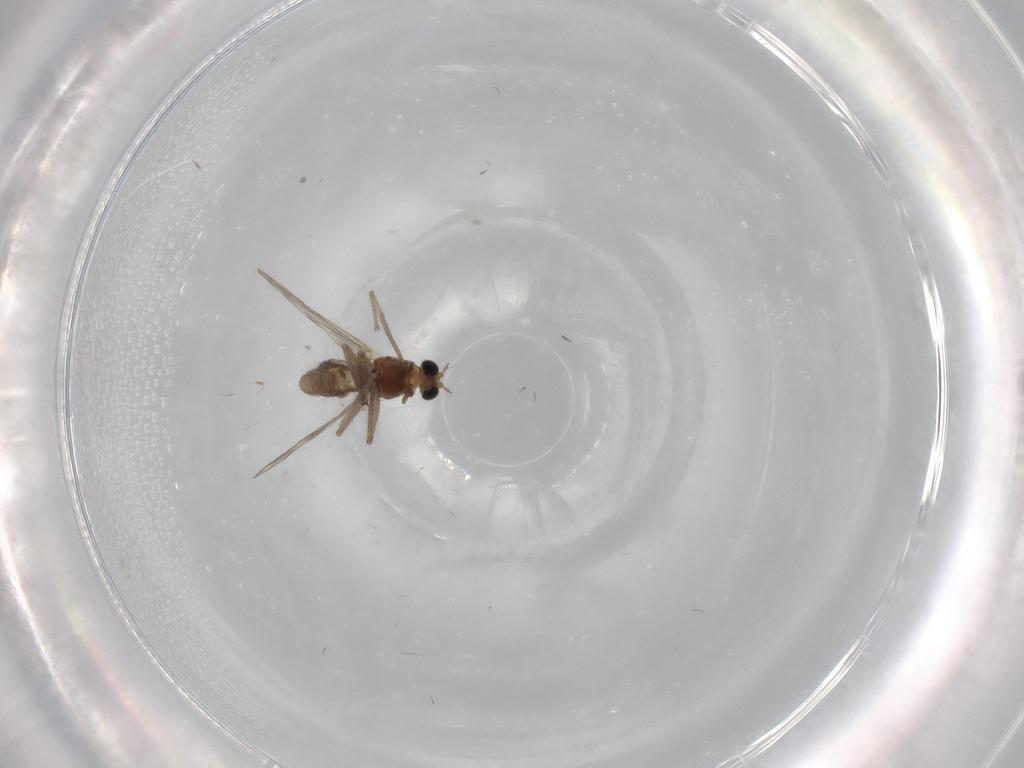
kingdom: Animalia
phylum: Arthropoda
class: Insecta
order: Diptera
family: Chironomidae
